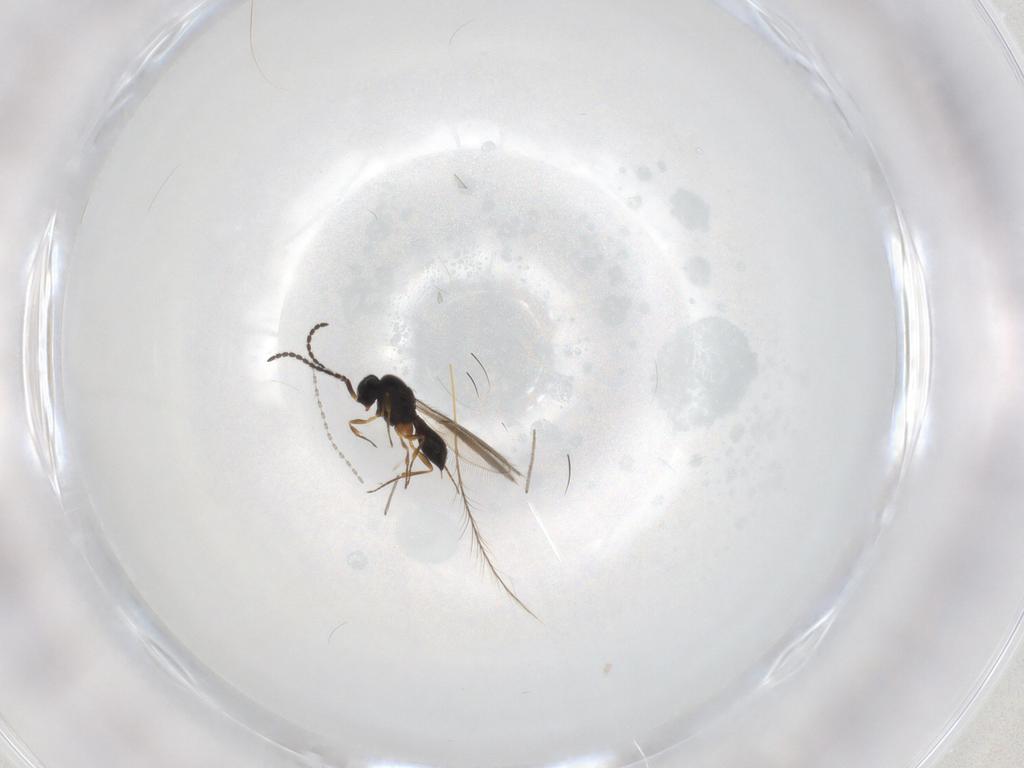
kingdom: Animalia
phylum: Arthropoda
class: Insecta
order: Hymenoptera
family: Scelionidae
